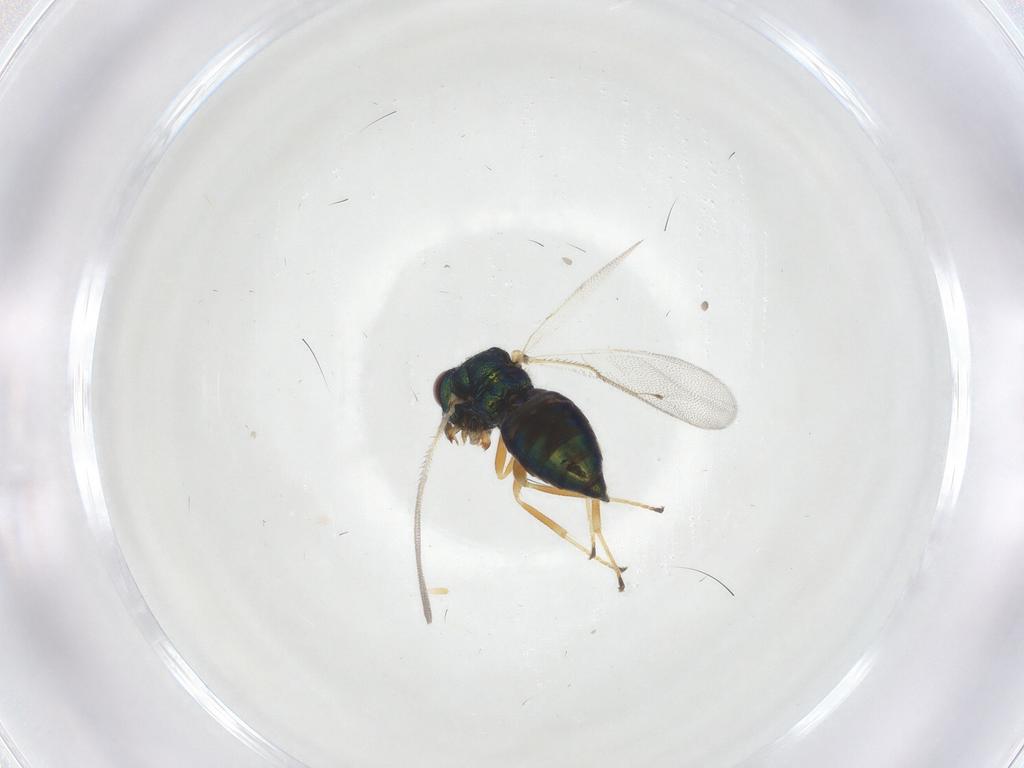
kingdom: Animalia
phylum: Arthropoda
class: Insecta
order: Hymenoptera
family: Pteromalidae
